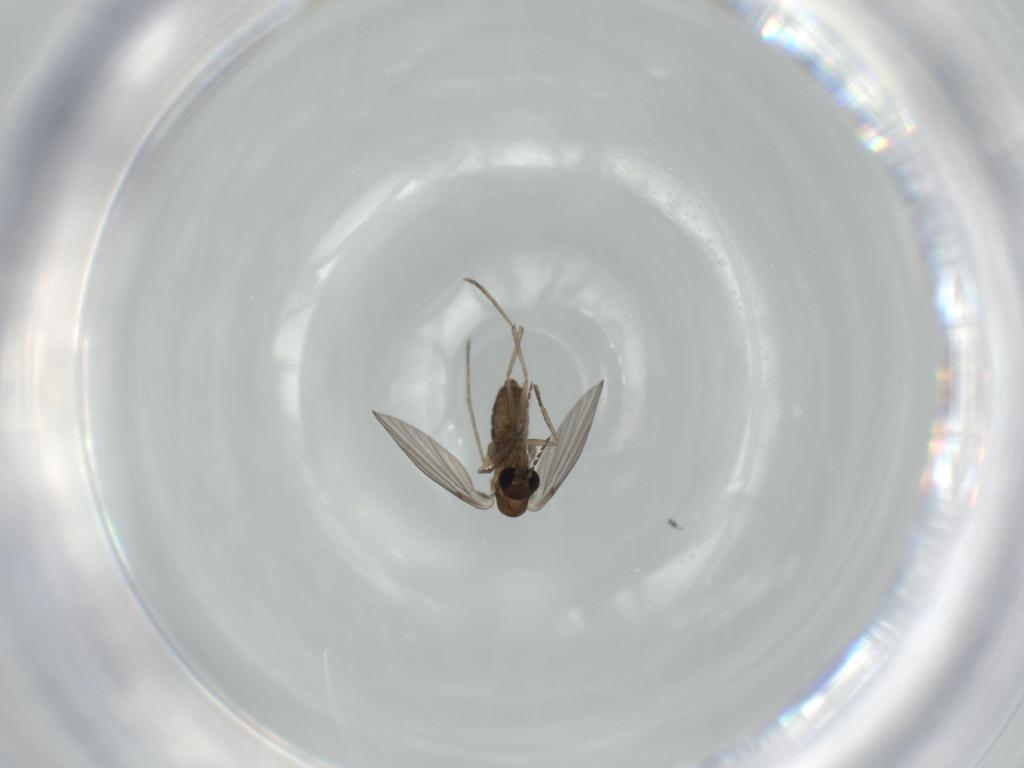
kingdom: Animalia
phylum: Arthropoda
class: Insecta
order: Diptera
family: Psychodidae
